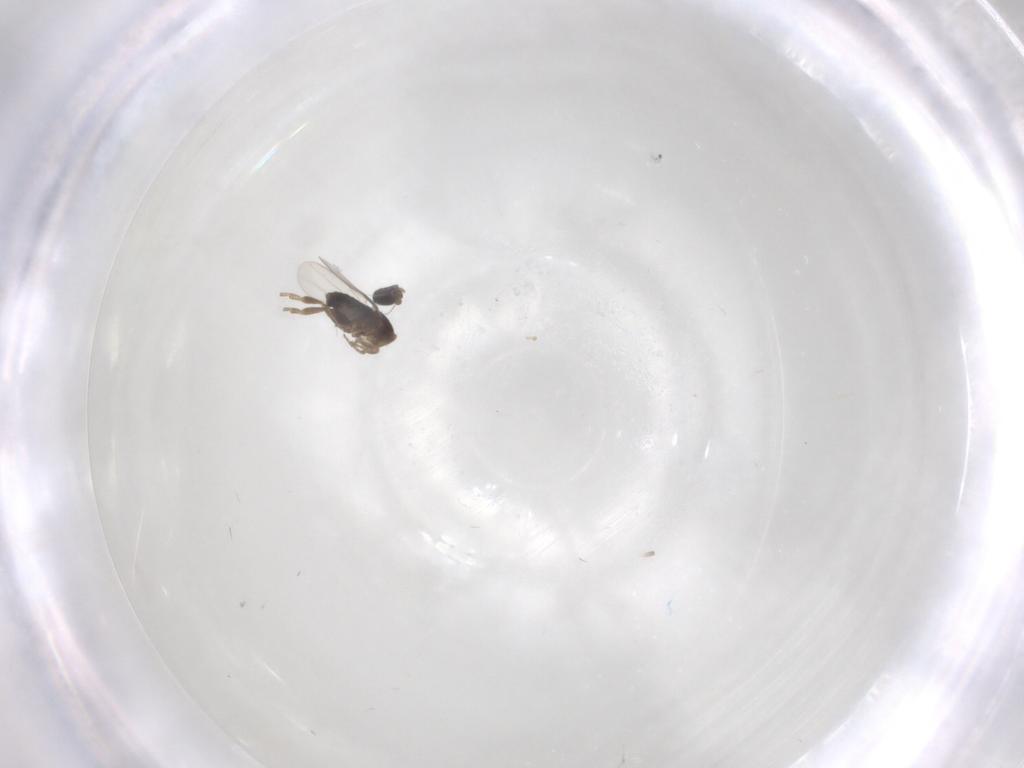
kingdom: Animalia
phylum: Arthropoda
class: Insecta
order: Diptera
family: Phoridae
